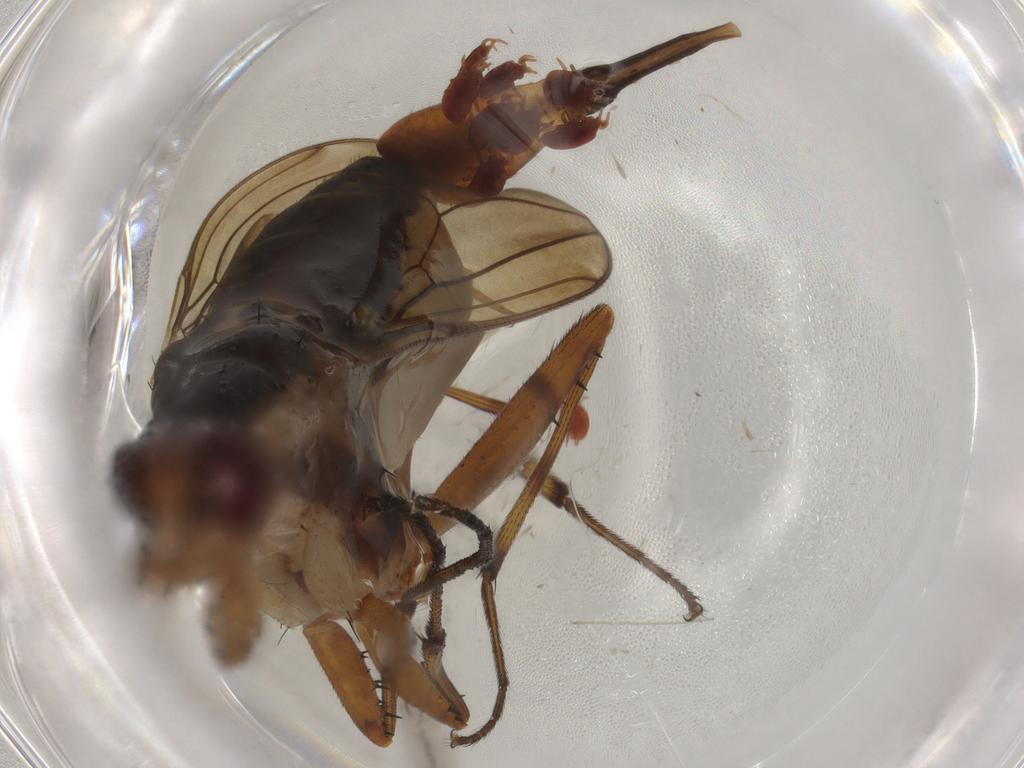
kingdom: Animalia
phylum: Arthropoda
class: Insecta
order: Diptera
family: Neriidae
